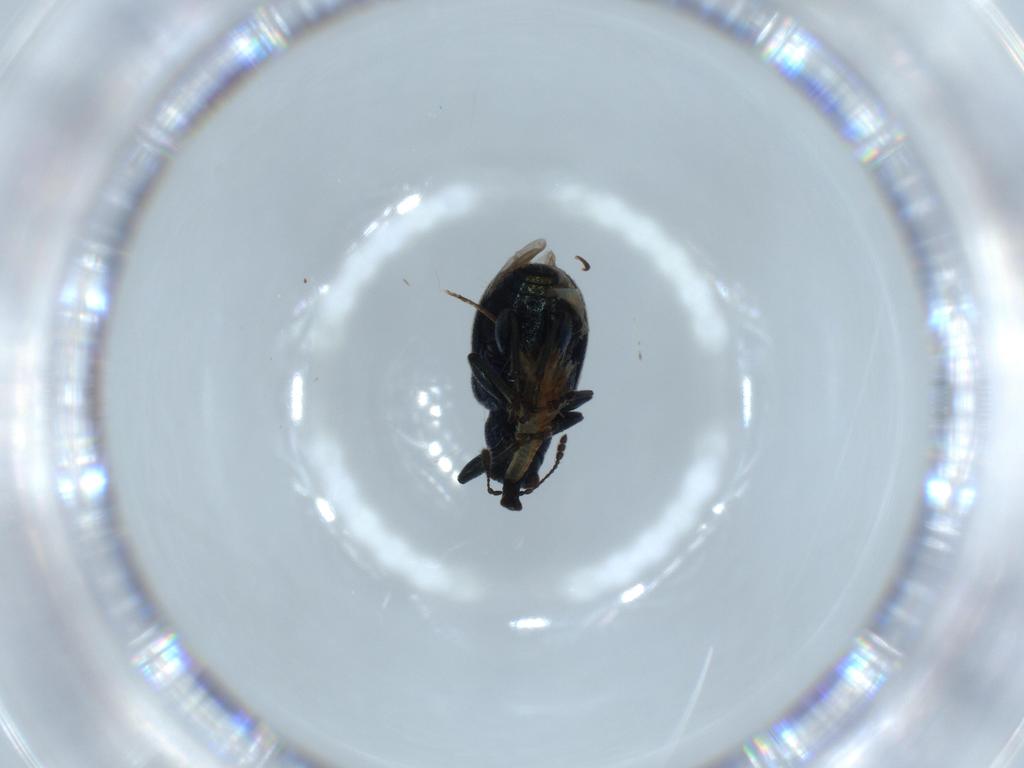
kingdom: Animalia
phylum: Arthropoda
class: Insecta
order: Coleoptera
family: Attelabidae
